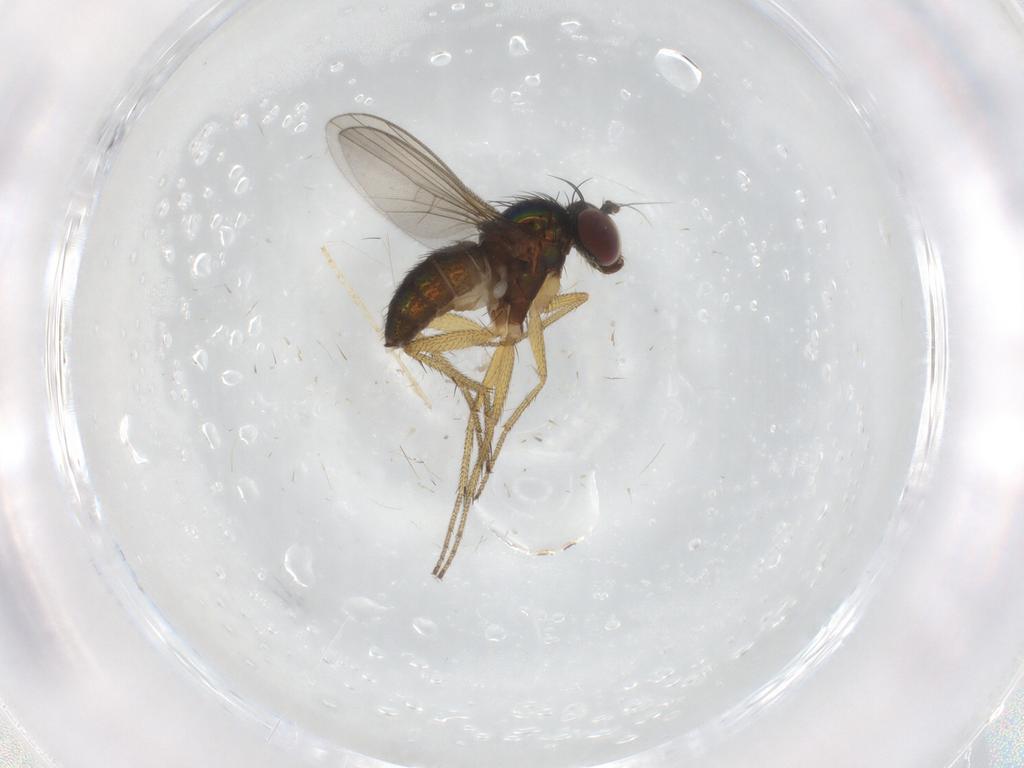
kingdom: Animalia
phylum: Arthropoda
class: Insecta
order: Diptera
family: Chironomidae
